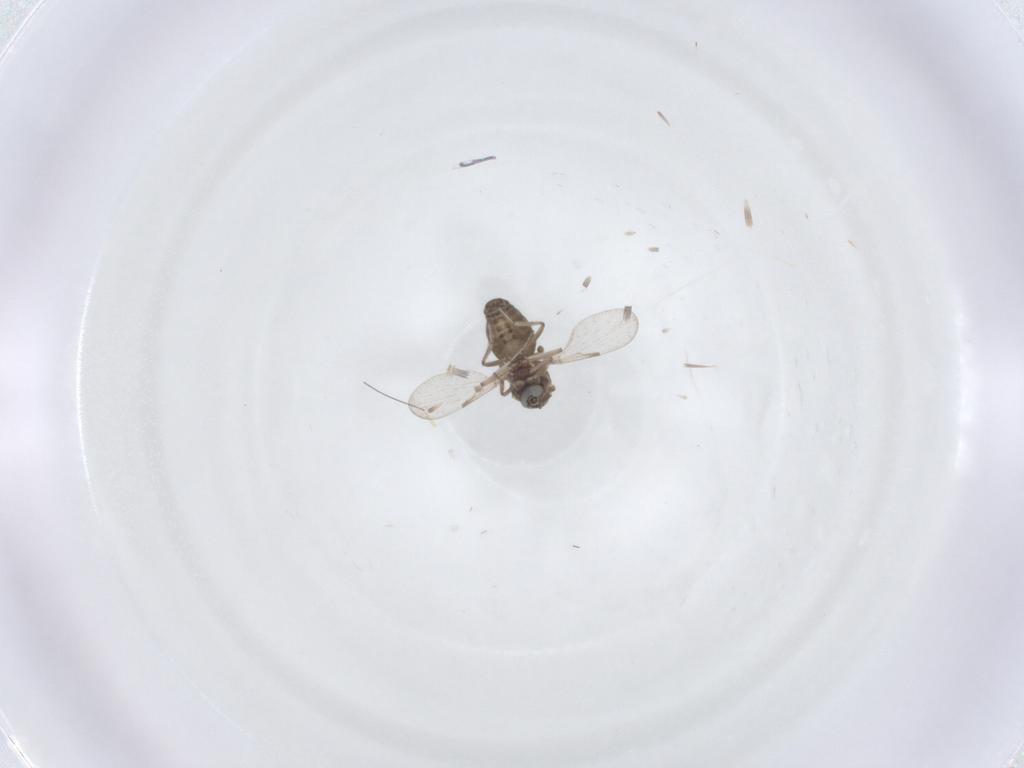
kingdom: Animalia
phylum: Arthropoda
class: Insecta
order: Diptera
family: Ceratopogonidae
